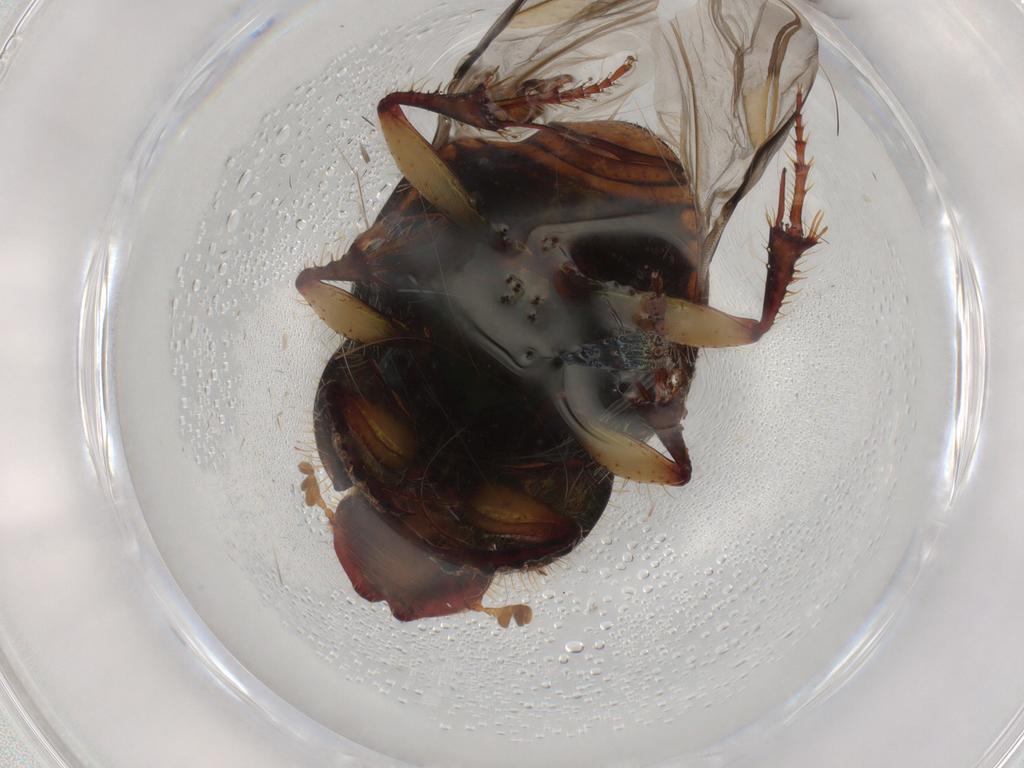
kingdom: Animalia
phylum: Arthropoda
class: Insecta
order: Coleoptera
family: Scarabaeidae
